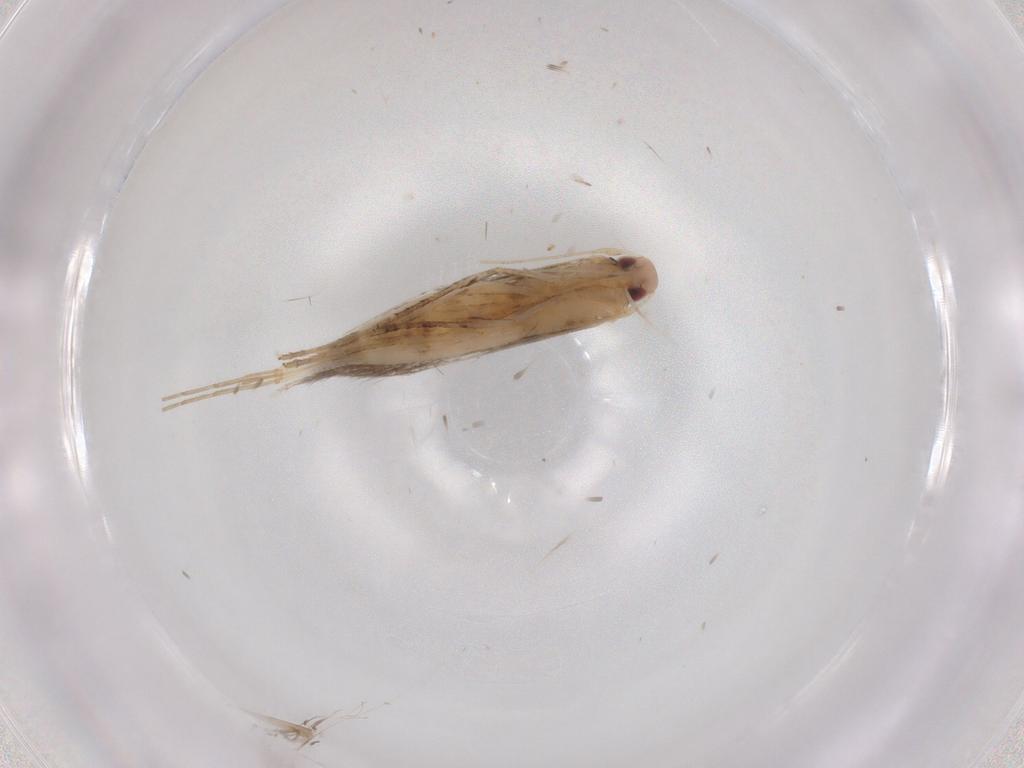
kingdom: Animalia
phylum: Arthropoda
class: Insecta
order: Lepidoptera
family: Cosmopterigidae
